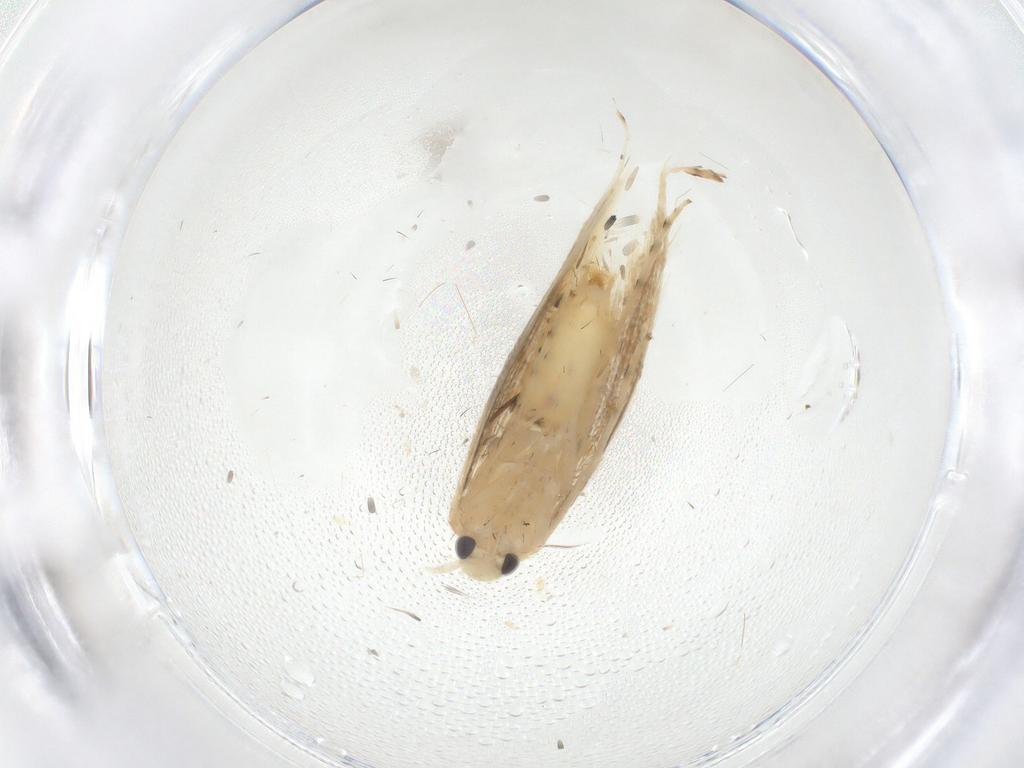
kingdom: Animalia
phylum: Arthropoda
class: Insecta
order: Lepidoptera
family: Gracillariidae
